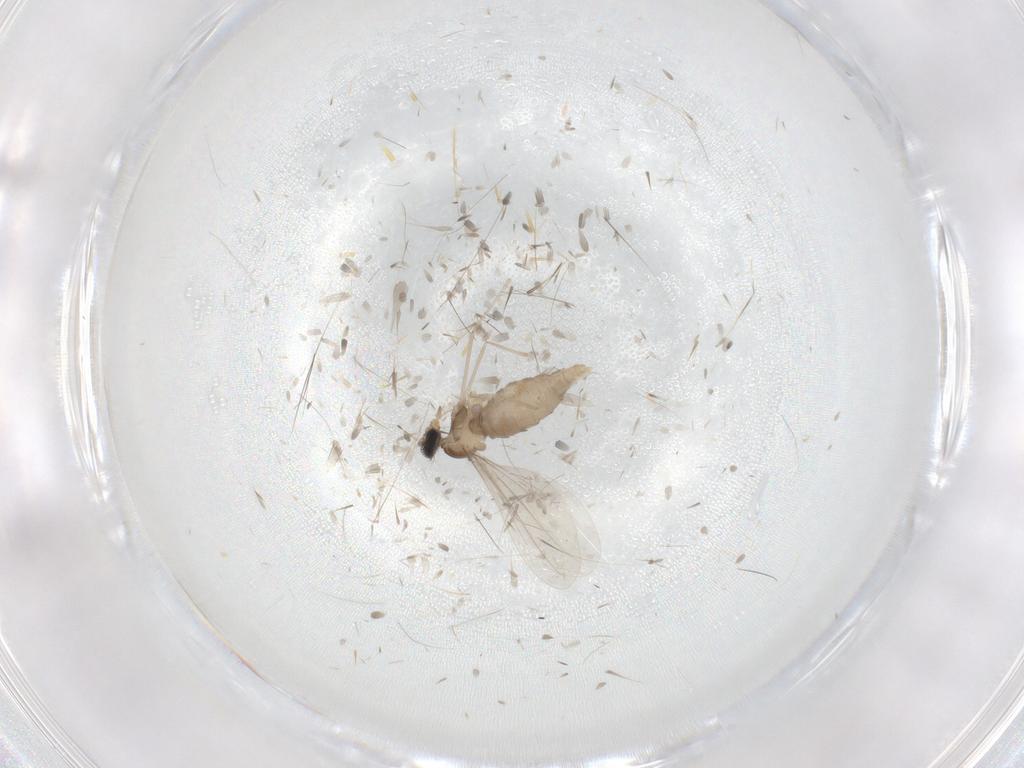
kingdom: Animalia
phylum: Arthropoda
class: Insecta
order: Diptera
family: Cecidomyiidae
